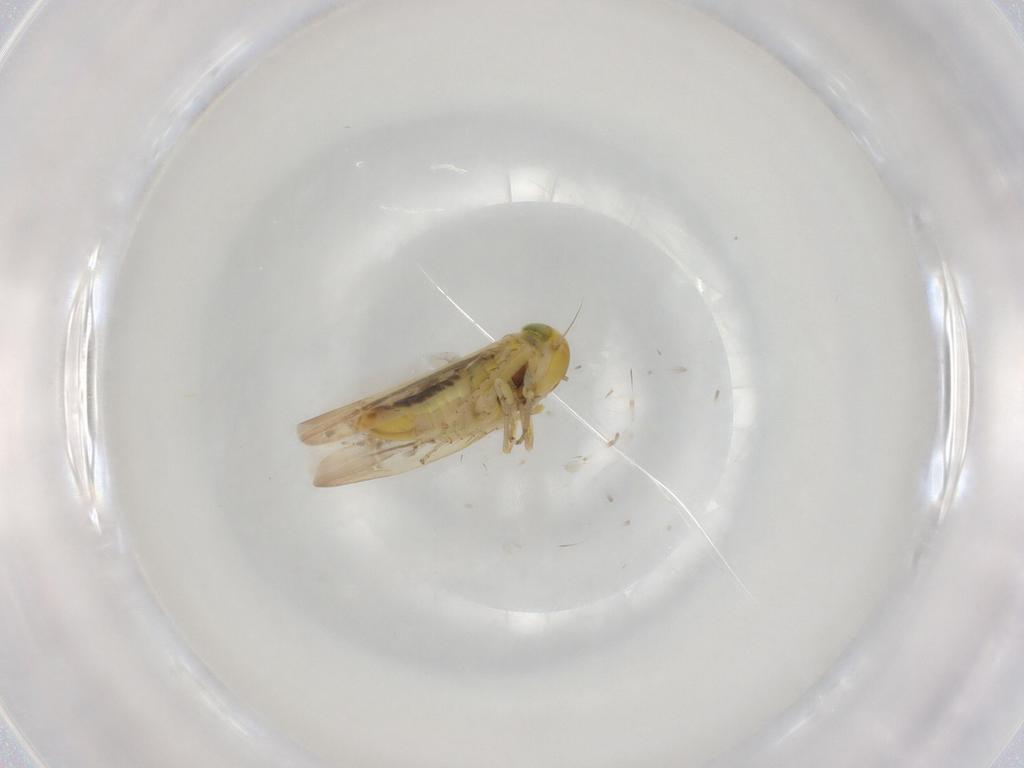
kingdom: Animalia
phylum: Arthropoda
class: Insecta
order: Hemiptera
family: Cicadellidae
